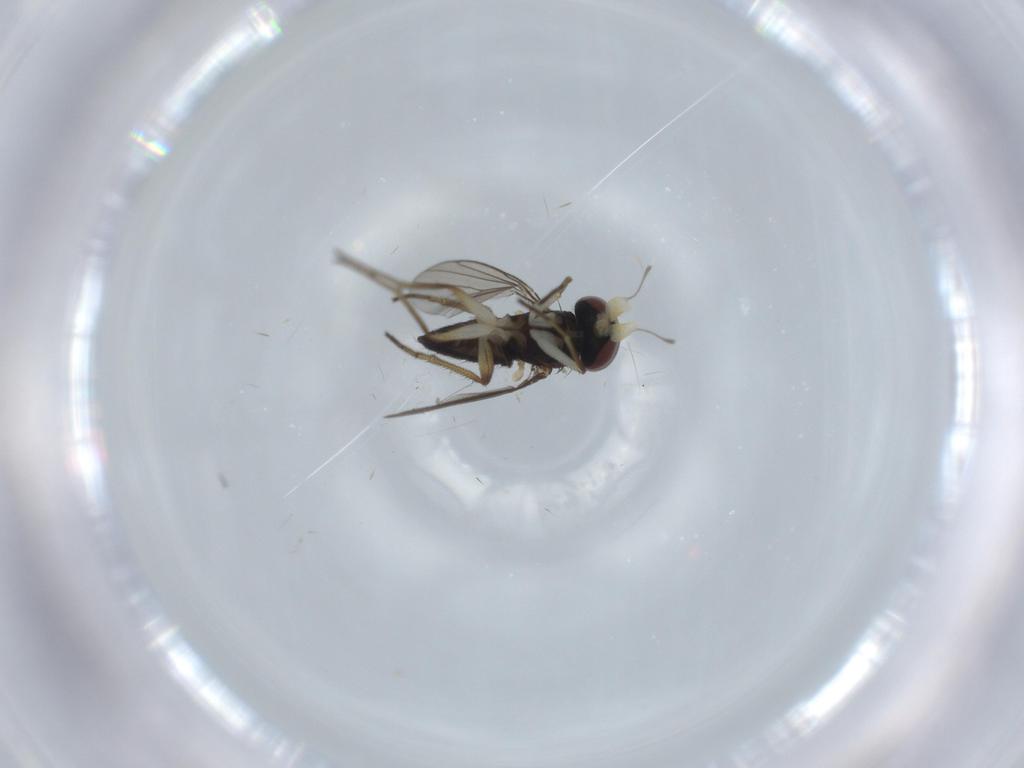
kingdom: Animalia
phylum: Arthropoda
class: Insecta
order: Diptera
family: Dolichopodidae
